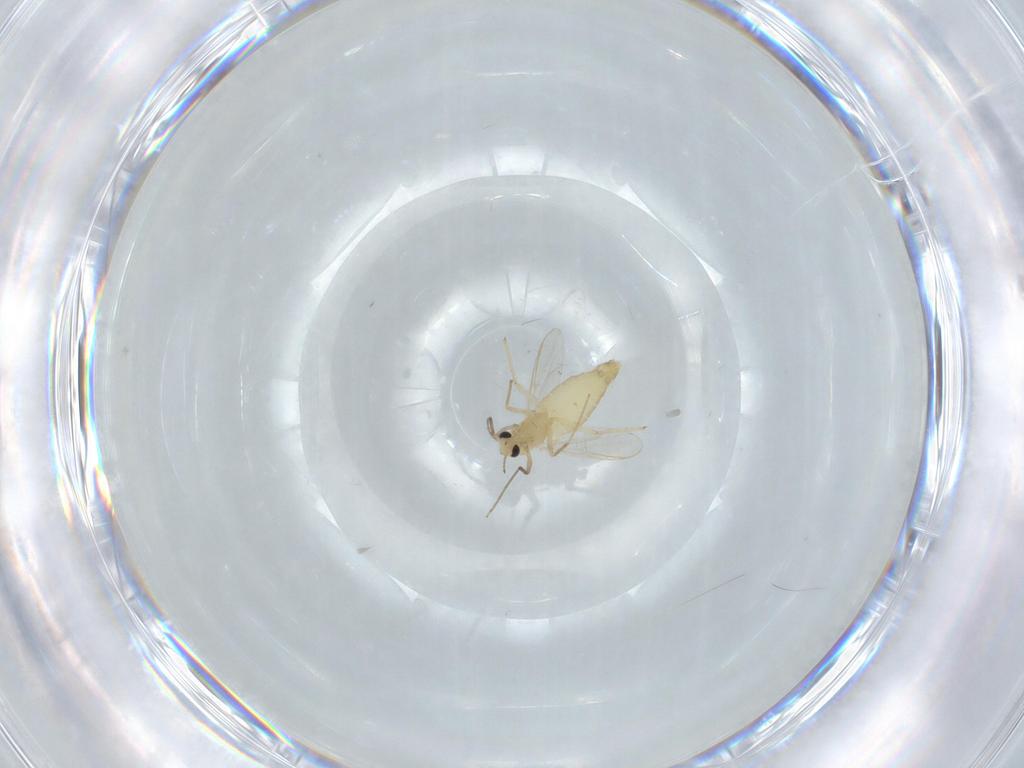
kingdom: Animalia
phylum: Arthropoda
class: Insecta
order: Diptera
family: Chironomidae
